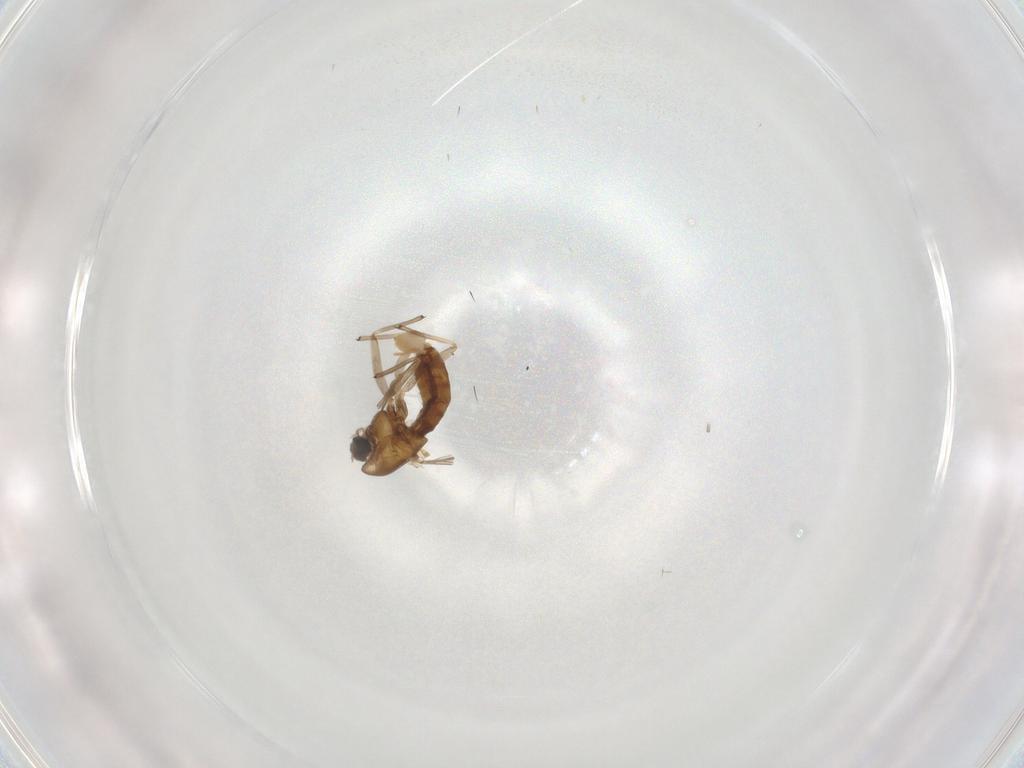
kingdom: Animalia
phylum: Arthropoda
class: Insecta
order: Diptera
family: Chironomidae
